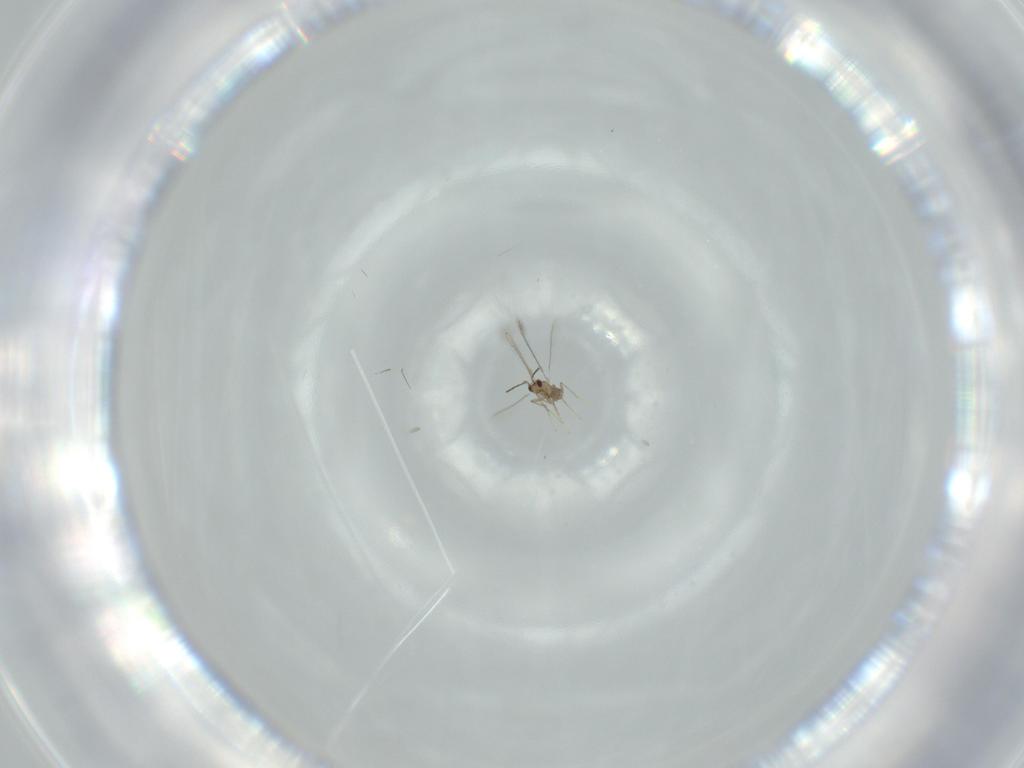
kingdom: Animalia
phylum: Arthropoda
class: Insecta
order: Hymenoptera
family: Mymaridae
